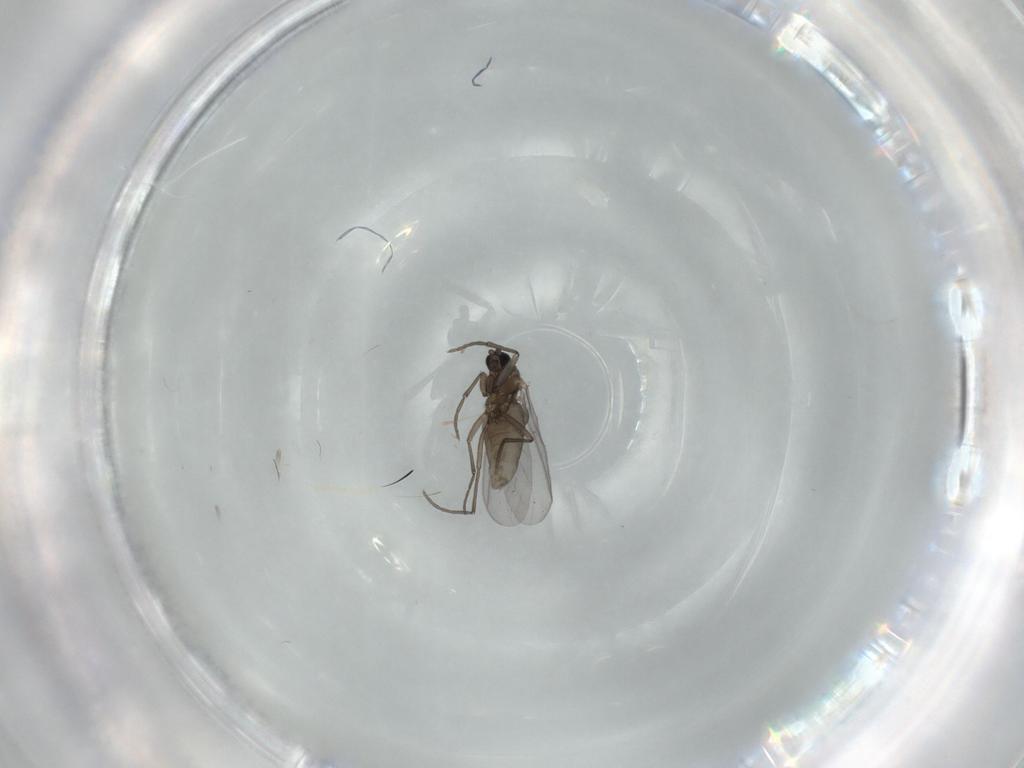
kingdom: Animalia
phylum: Arthropoda
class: Insecta
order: Diptera
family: Sciaridae
